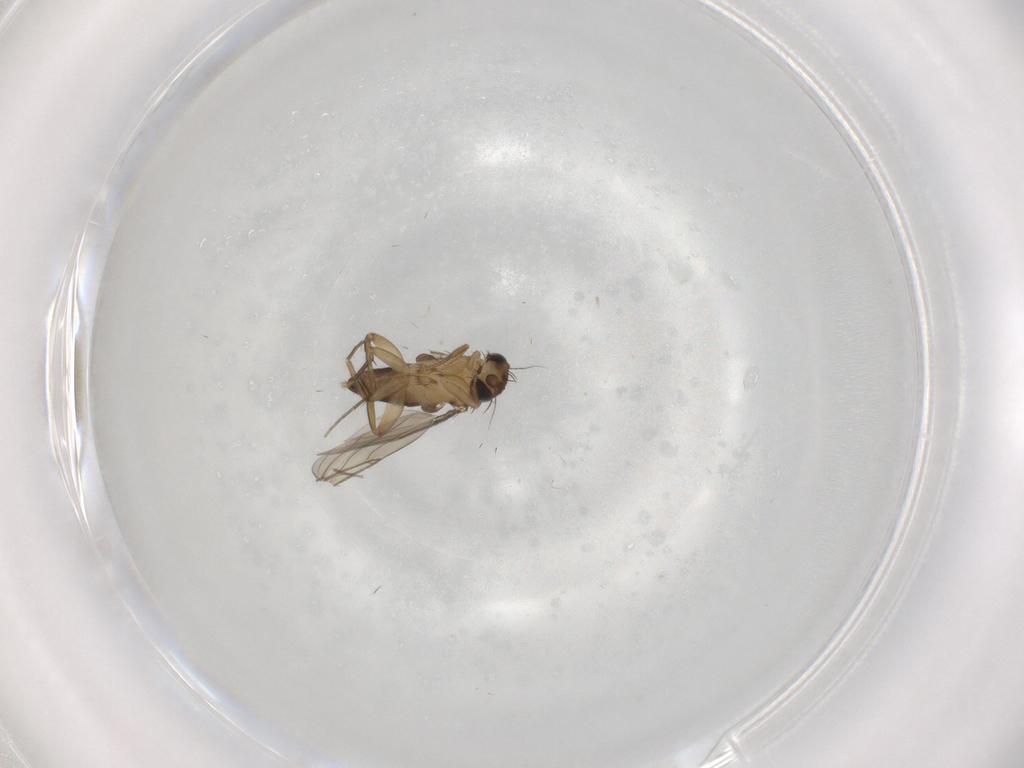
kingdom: Animalia
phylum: Arthropoda
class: Insecta
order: Diptera
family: Phoridae
